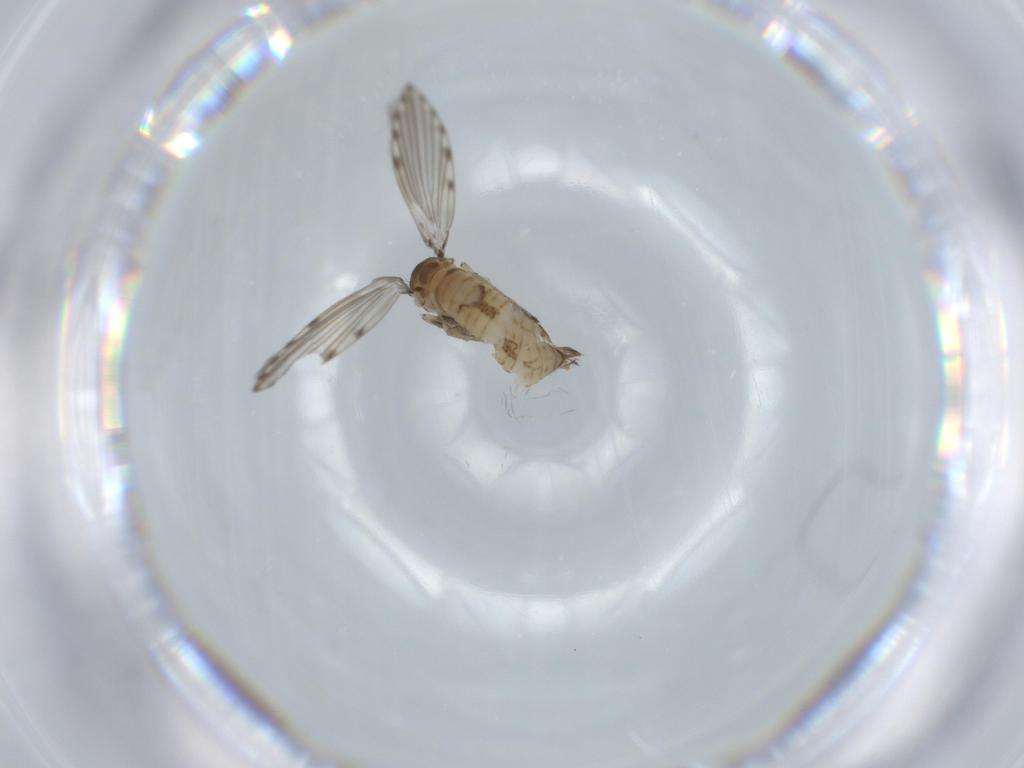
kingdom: Animalia
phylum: Arthropoda
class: Insecta
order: Diptera
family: Psychodidae
